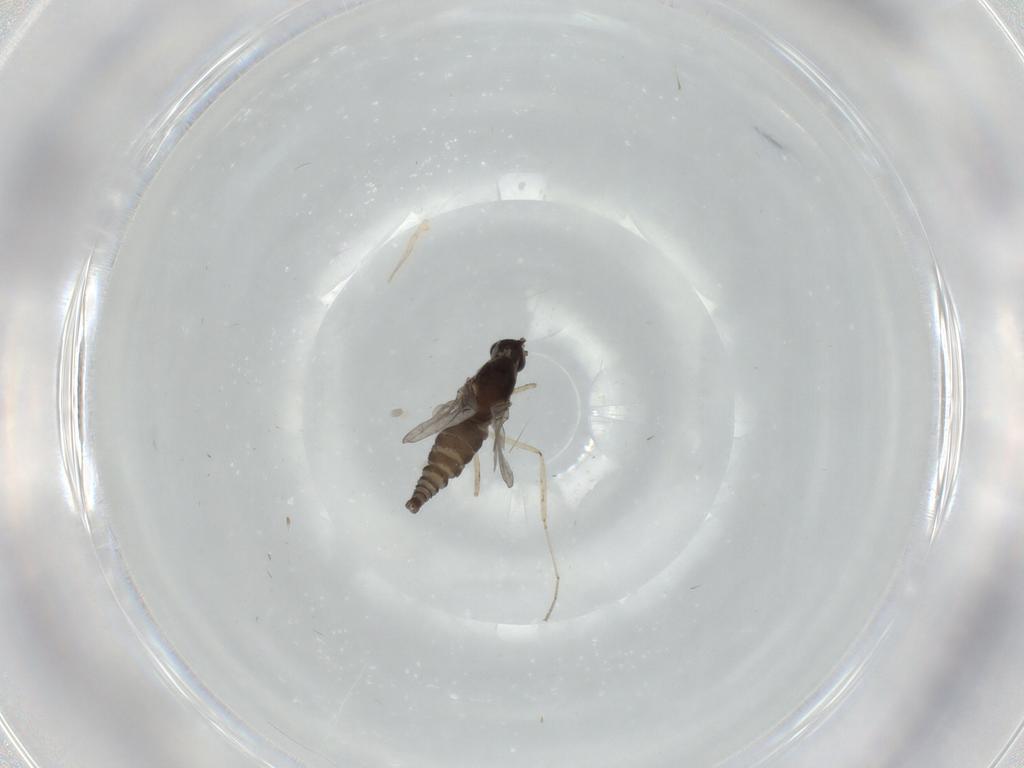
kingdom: Animalia
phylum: Arthropoda
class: Insecta
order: Diptera
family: Cecidomyiidae
